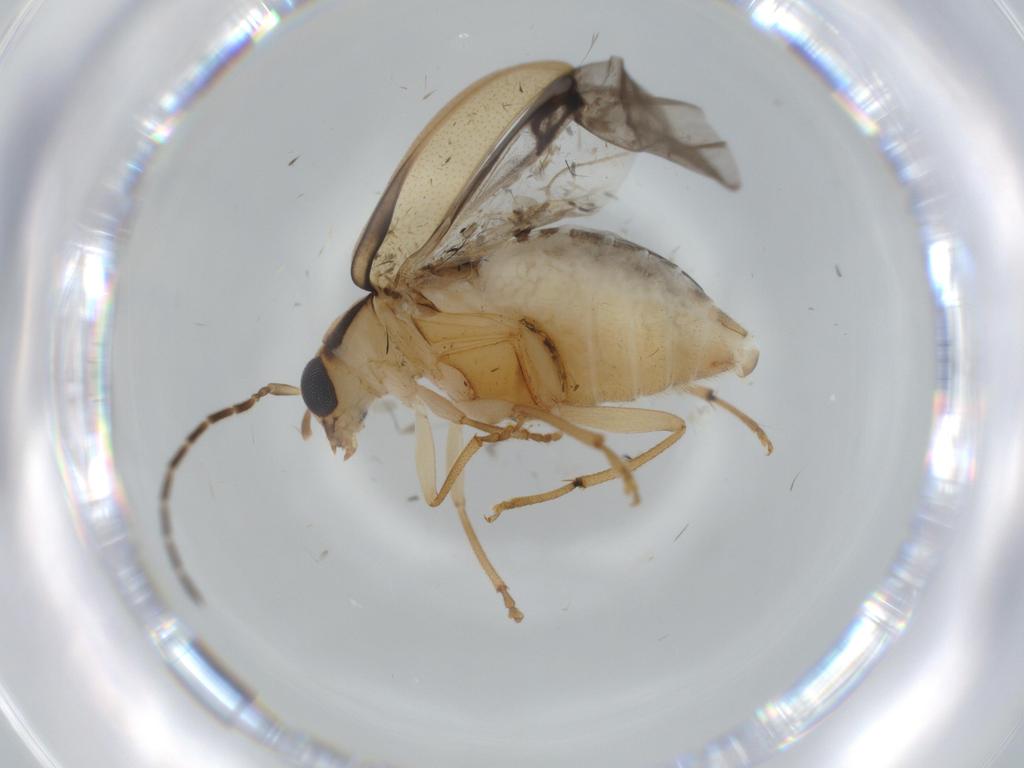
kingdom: Animalia
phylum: Arthropoda
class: Insecta
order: Coleoptera
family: Chrysomelidae
